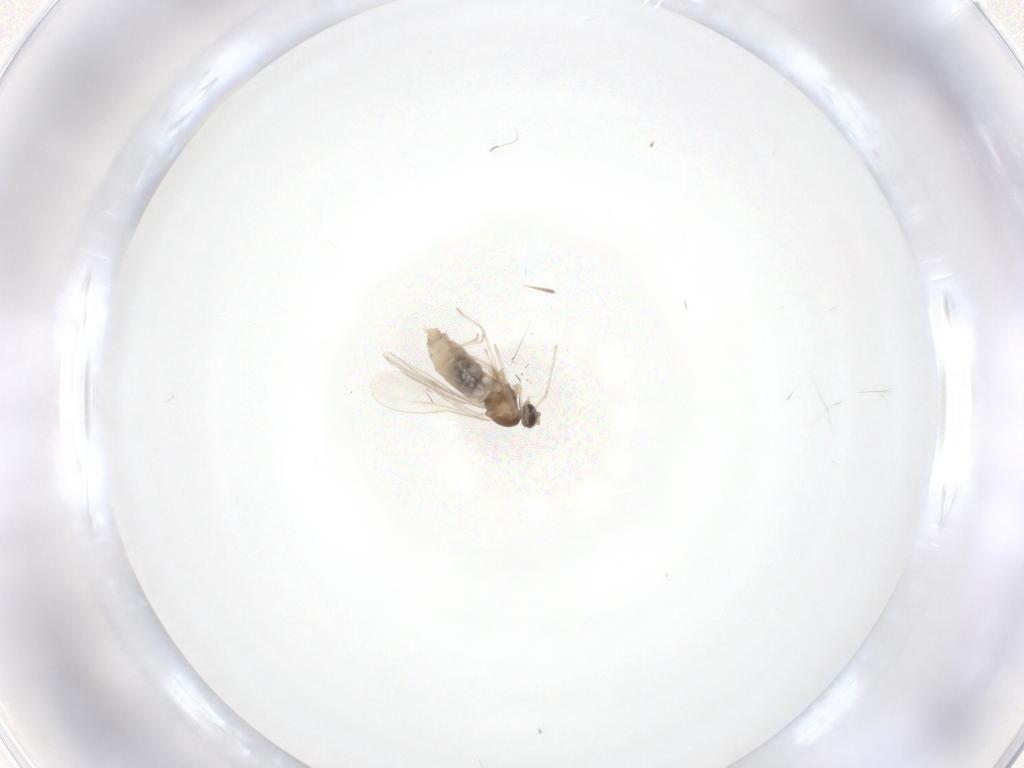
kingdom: Animalia
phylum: Arthropoda
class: Insecta
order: Diptera
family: Cecidomyiidae
